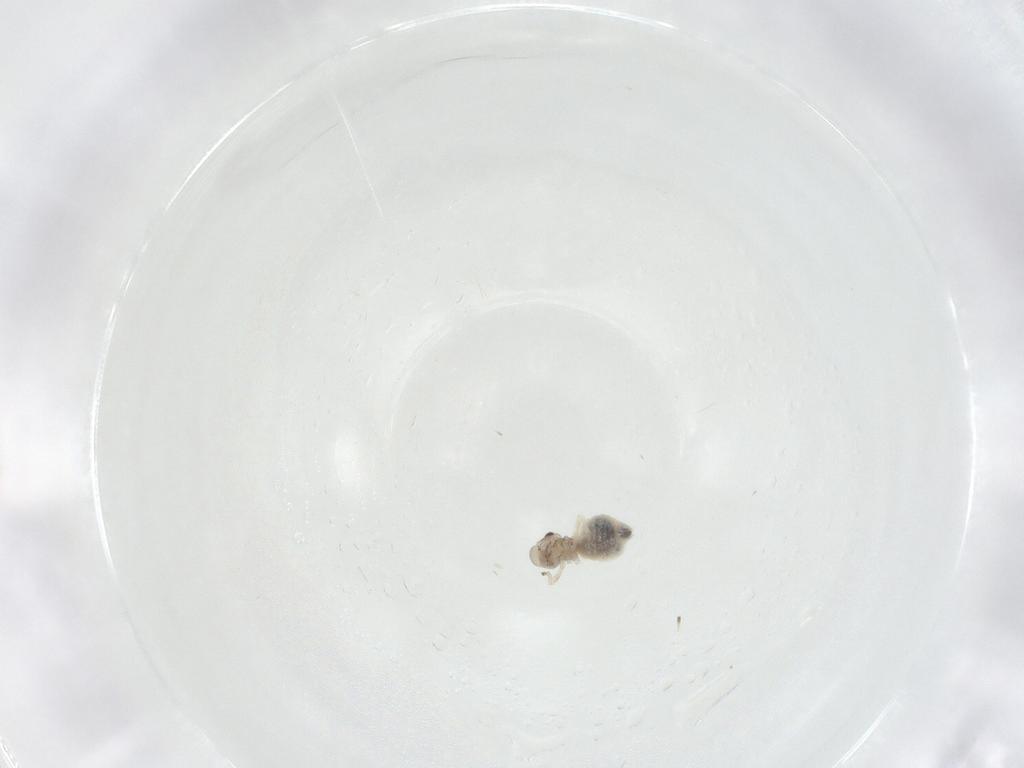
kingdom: Animalia
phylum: Arthropoda
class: Insecta
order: Psocodea
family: Stenopsocidae
